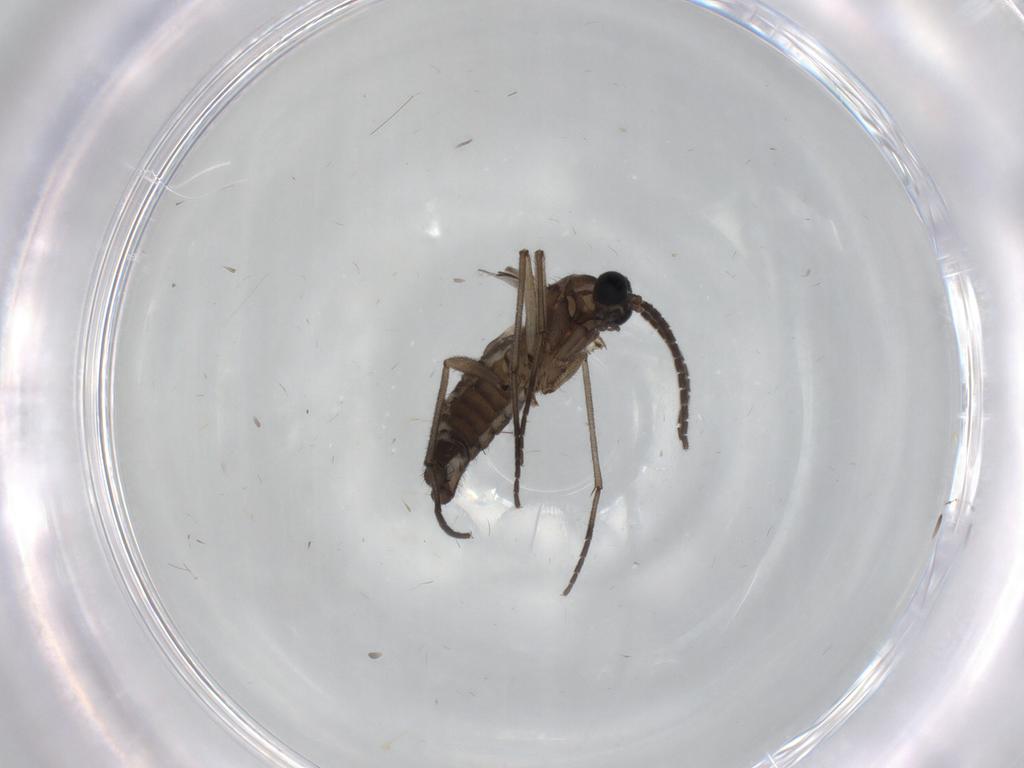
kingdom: Animalia
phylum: Arthropoda
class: Insecta
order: Diptera
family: Sciaridae
